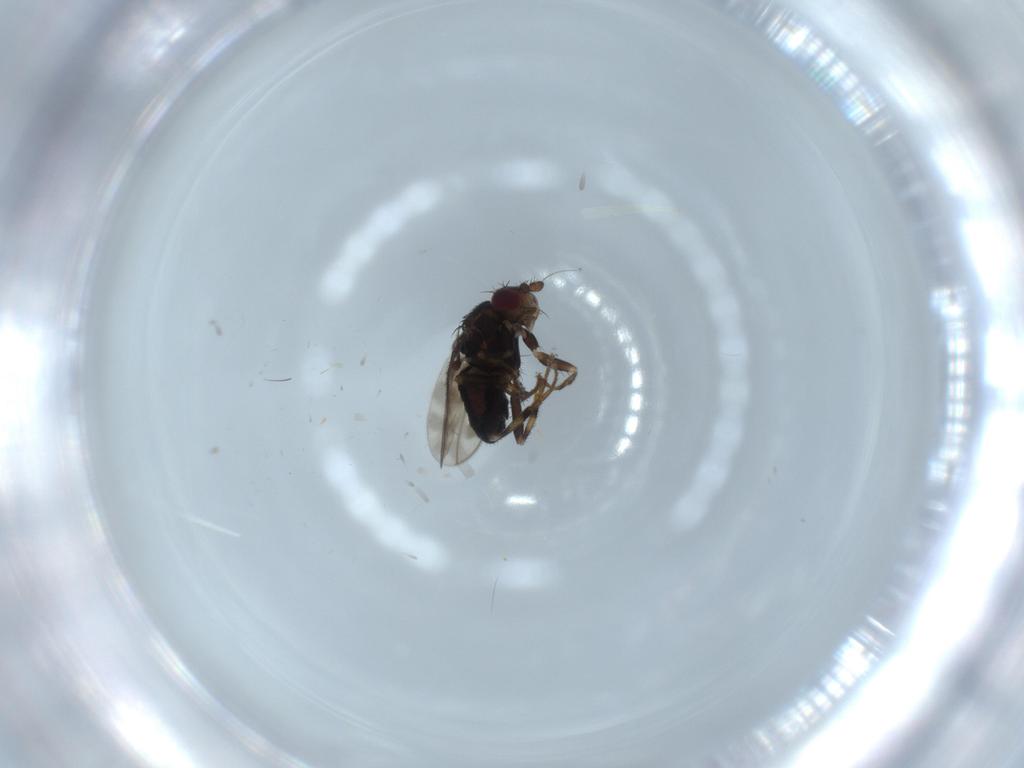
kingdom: Animalia
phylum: Arthropoda
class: Insecta
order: Diptera
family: Sphaeroceridae
